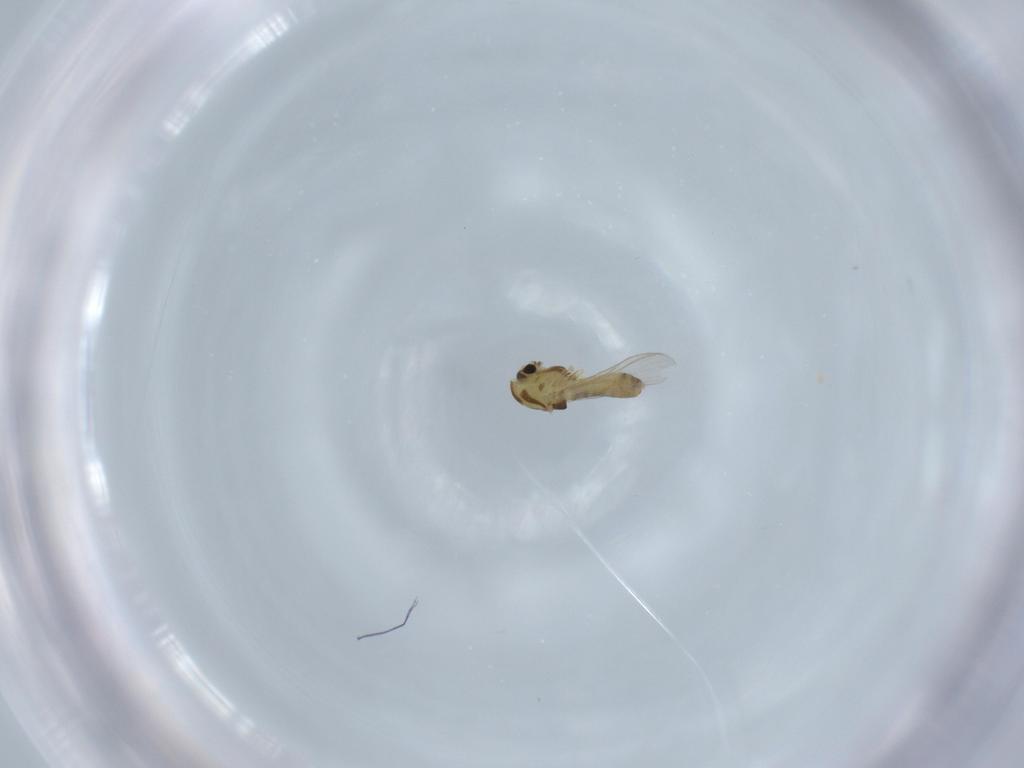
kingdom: Animalia
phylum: Arthropoda
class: Insecta
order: Diptera
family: Chironomidae
